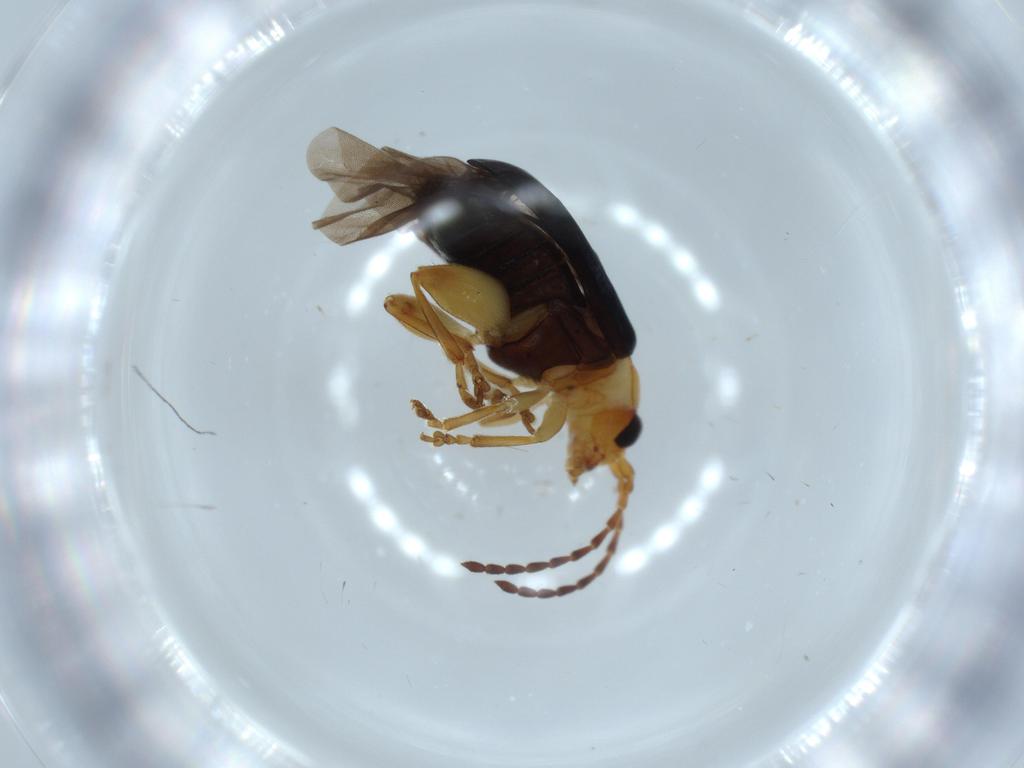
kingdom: Animalia
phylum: Arthropoda
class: Insecta
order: Coleoptera
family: Chrysomelidae
